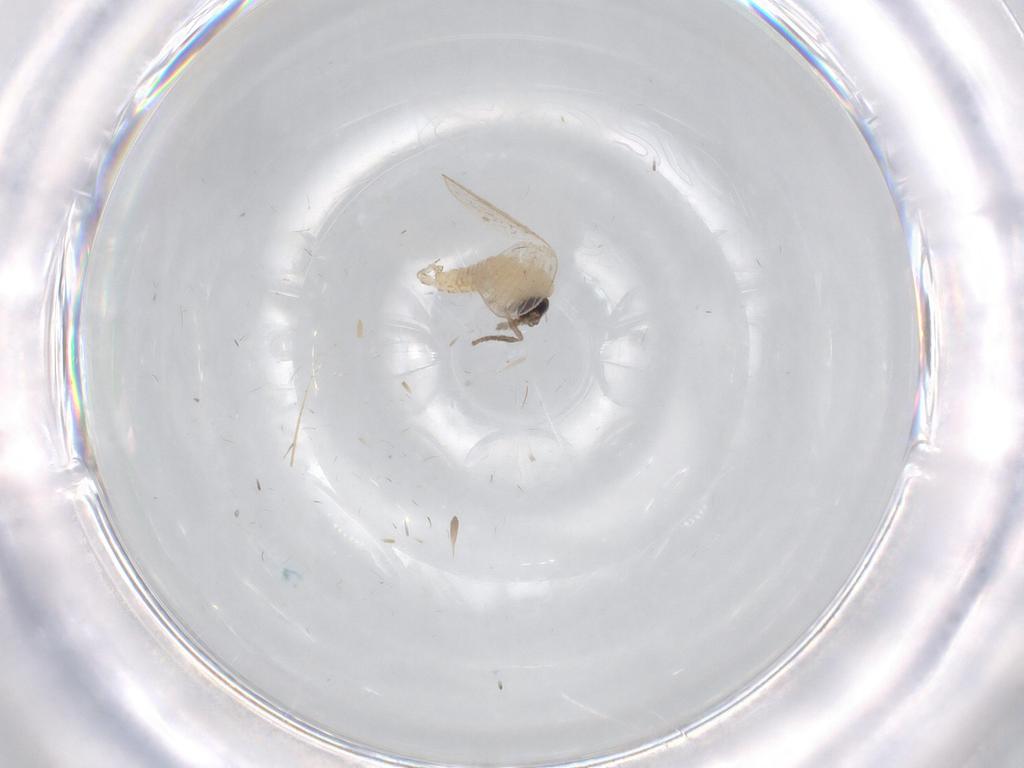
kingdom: Animalia
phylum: Arthropoda
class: Insecta
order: Diptera
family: Psychodidae
